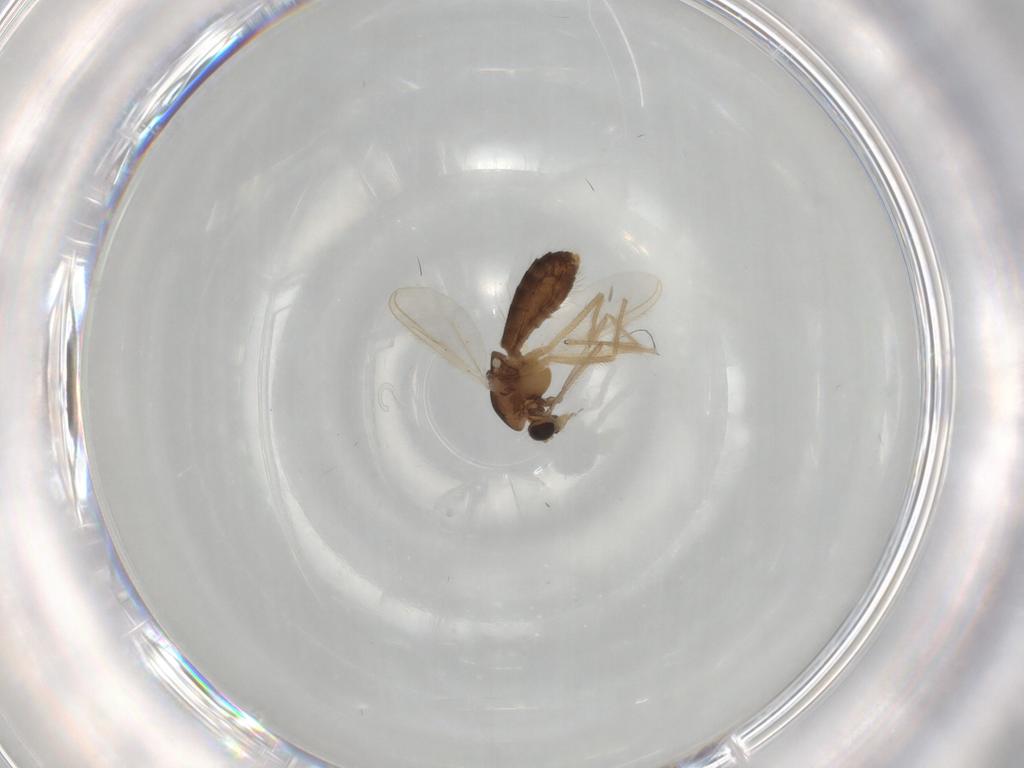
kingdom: Animalia
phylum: Arthropoda
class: Insecta
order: Diptera
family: Chironomidae
